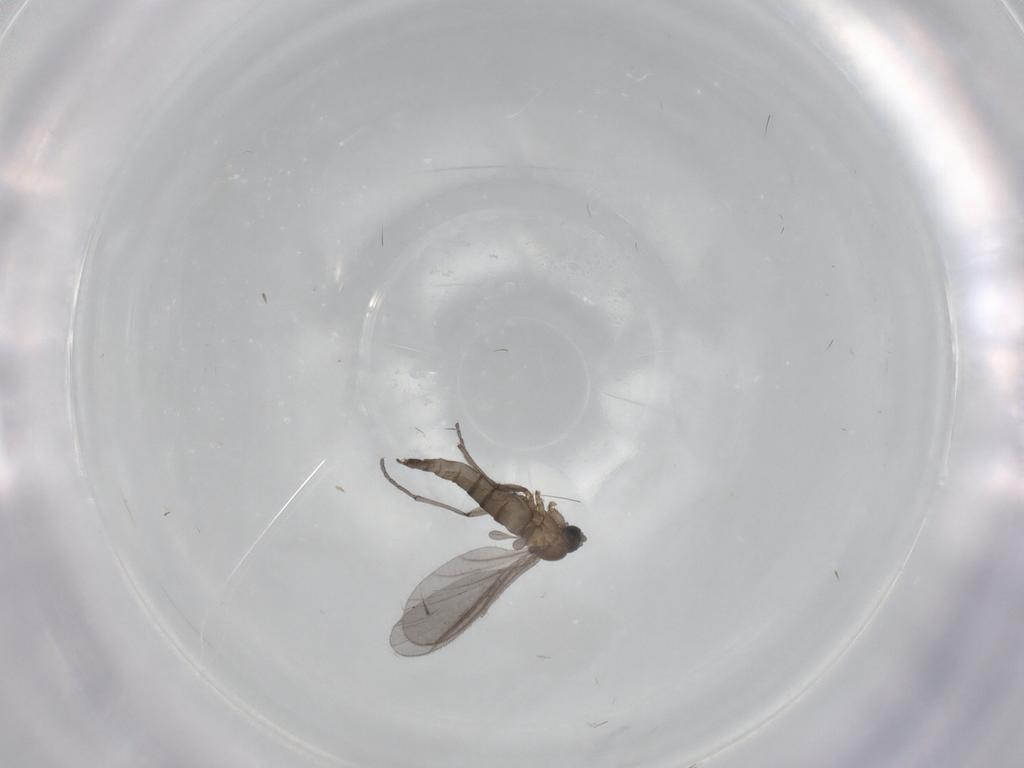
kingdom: Animalia
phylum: Arthropoda
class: Insecta
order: Diptera
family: Sciaridae
